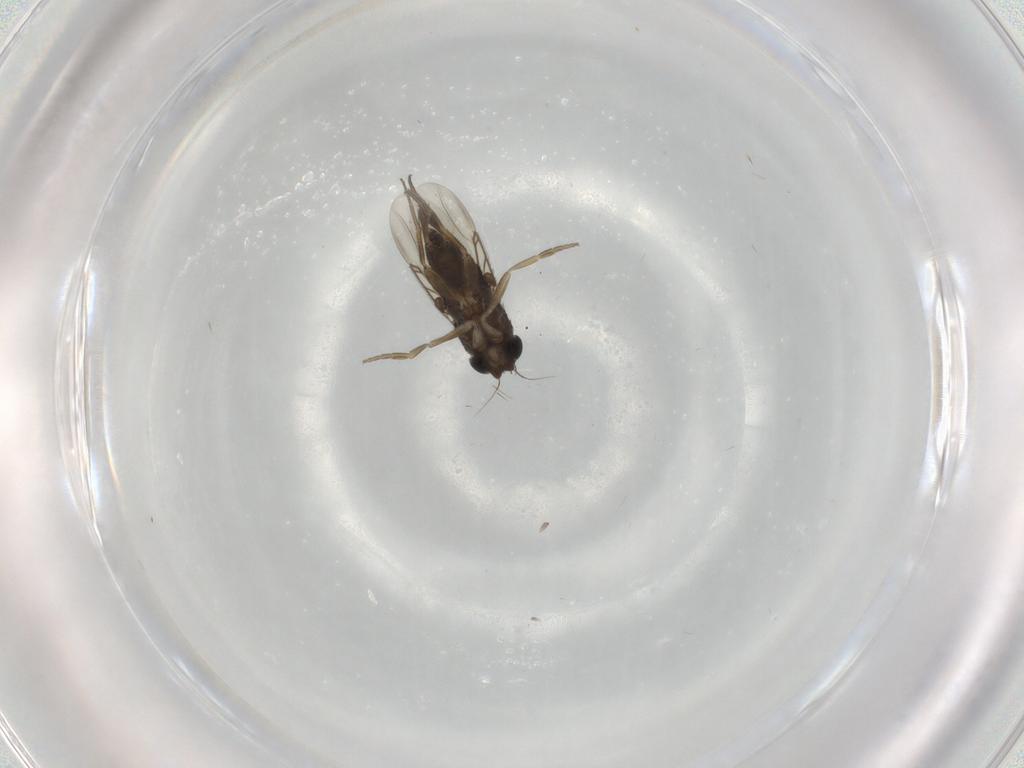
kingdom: Animalia
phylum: Arthropoda
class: Insecta
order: Diptera
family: Phoridae
